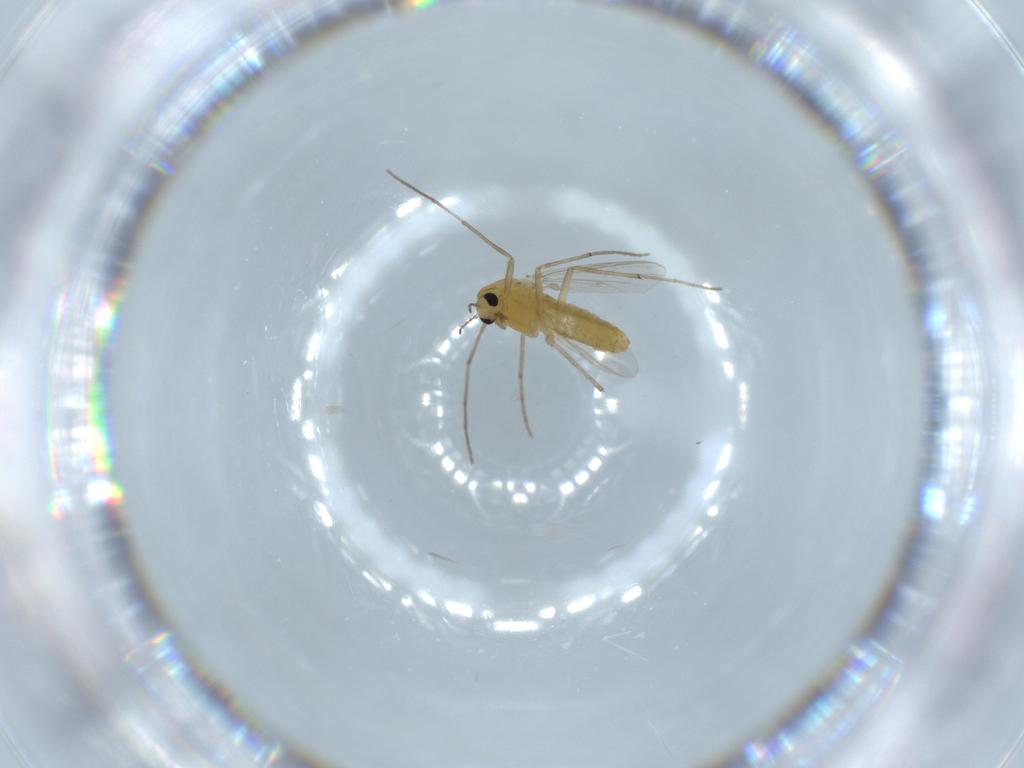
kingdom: Animalia
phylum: Arthropoda
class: Insecta
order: Diptera
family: Chironomidae
